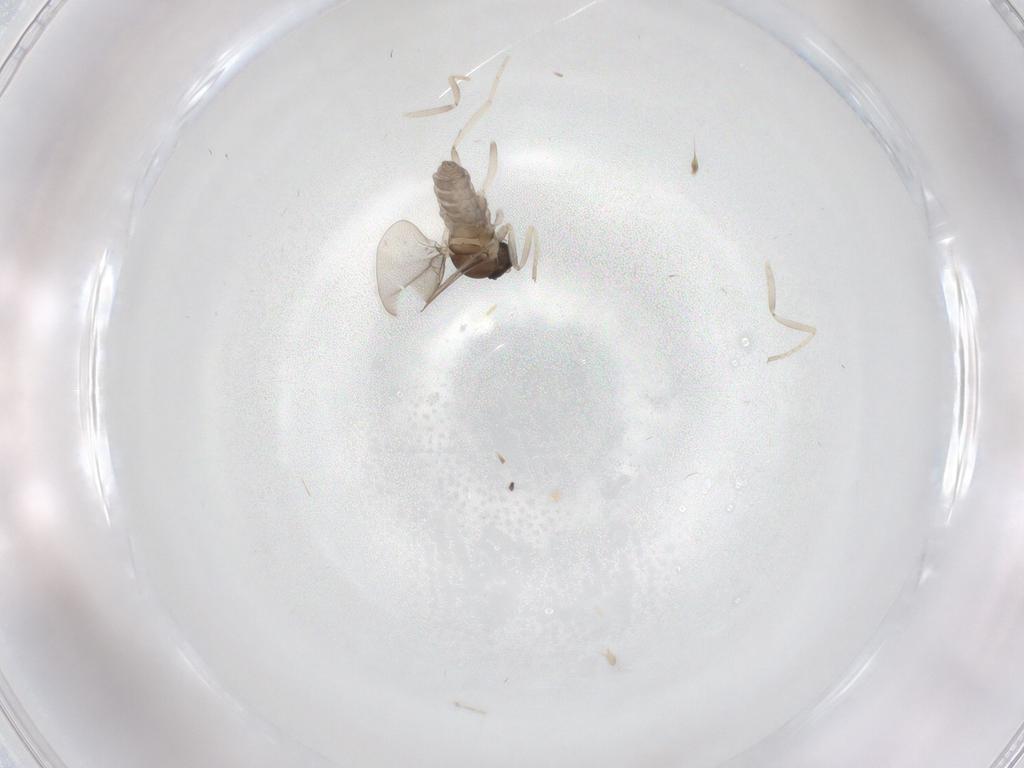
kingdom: Animalia
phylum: Arthropoda
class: Insecta
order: Diptera
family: Cecidomyiidae
